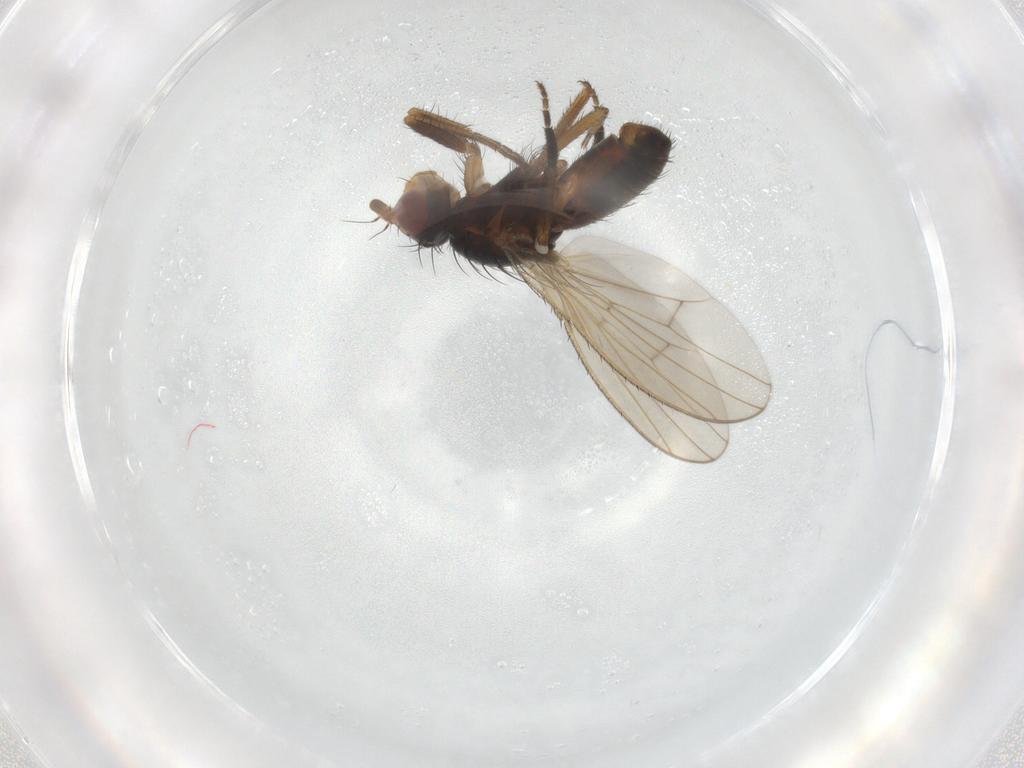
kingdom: Animalia
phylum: Arthropoda
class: Insecta
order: Diptera
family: Heleomyzidae
